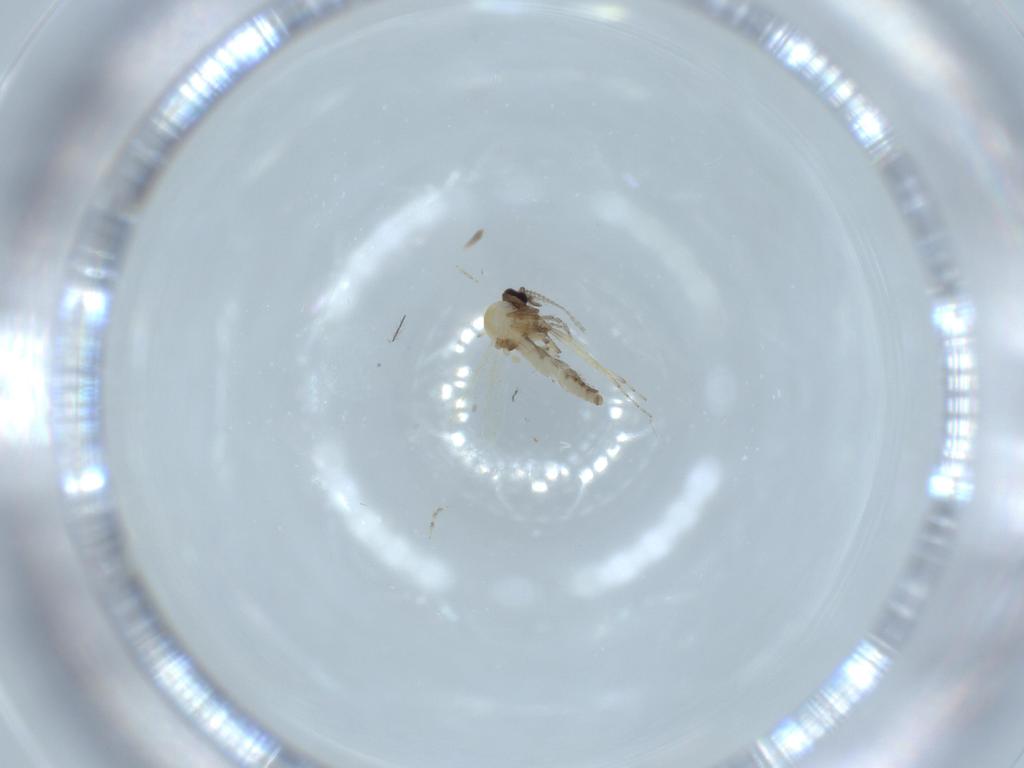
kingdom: Animalia
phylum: Arthropoda
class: Insecta
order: Diptera
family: Ceratopogonidae
